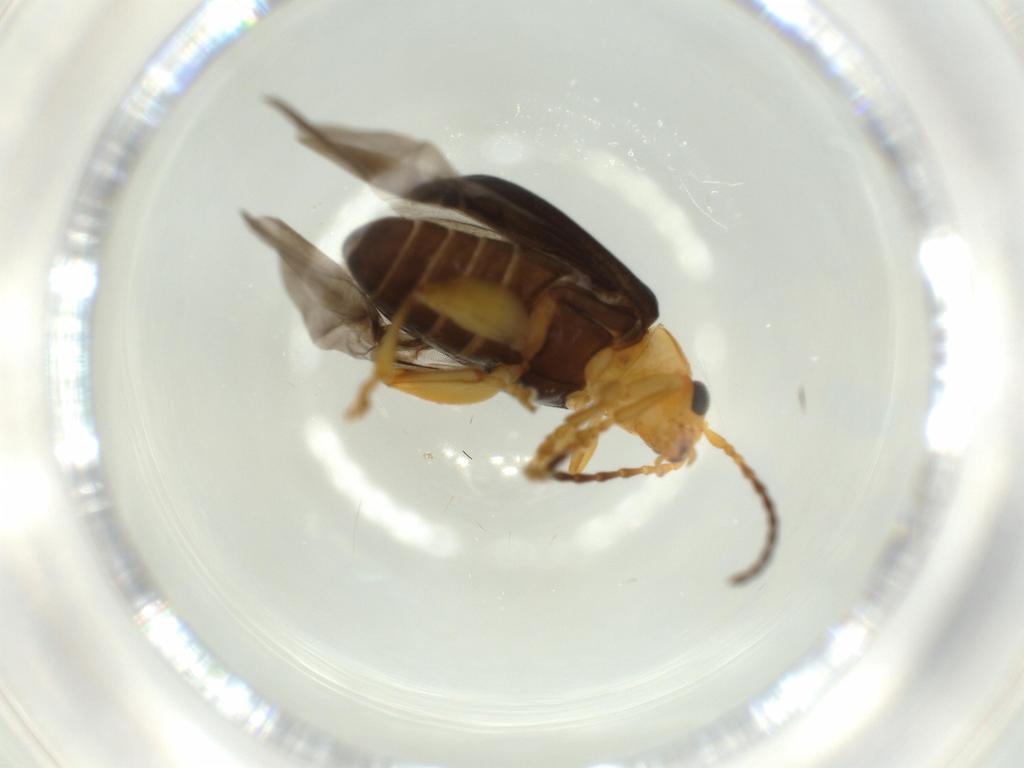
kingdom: Animalia
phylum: Arthropoda
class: Insecta
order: Coleoptera
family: Chrysomelidae
